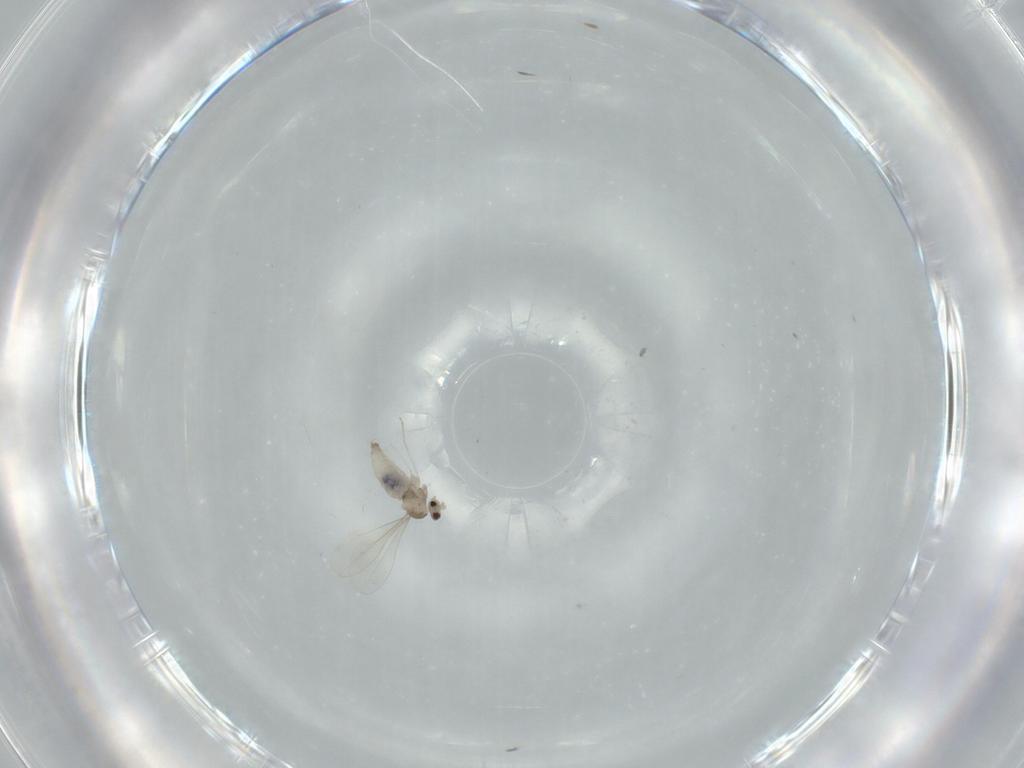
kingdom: Animalia
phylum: Arthropoda
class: Insecta
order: Diptera
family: Cecidomyiidae
